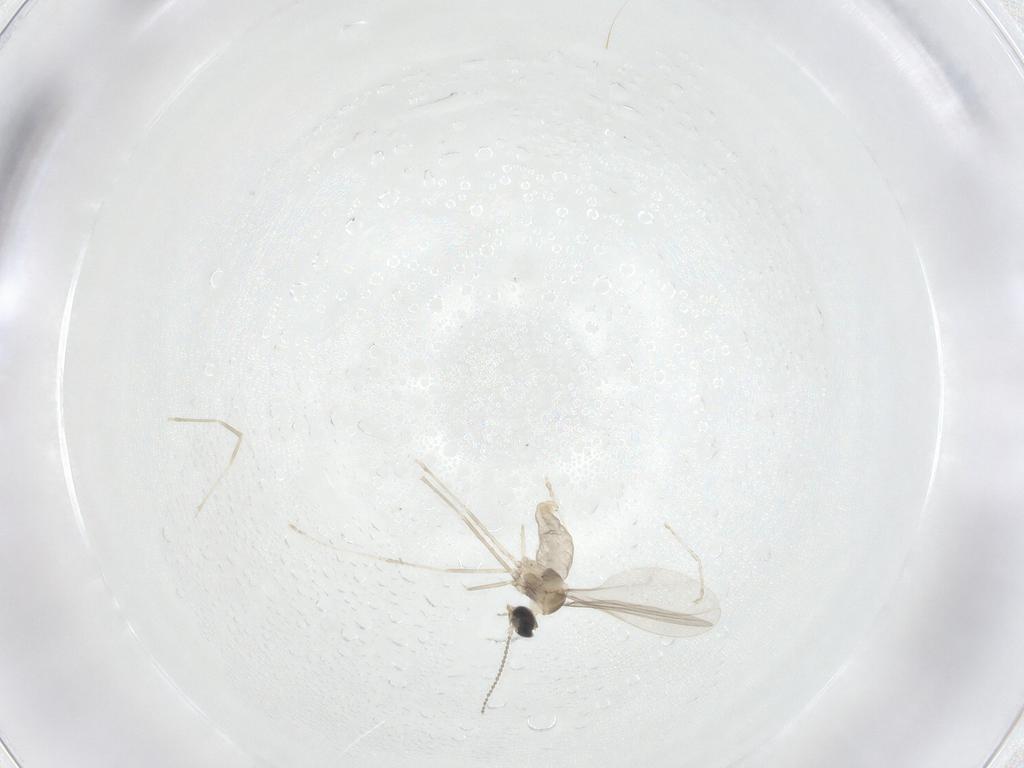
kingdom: Animalia
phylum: Arthropoda
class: Insecta
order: Diptera
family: Cecidomyiidae
